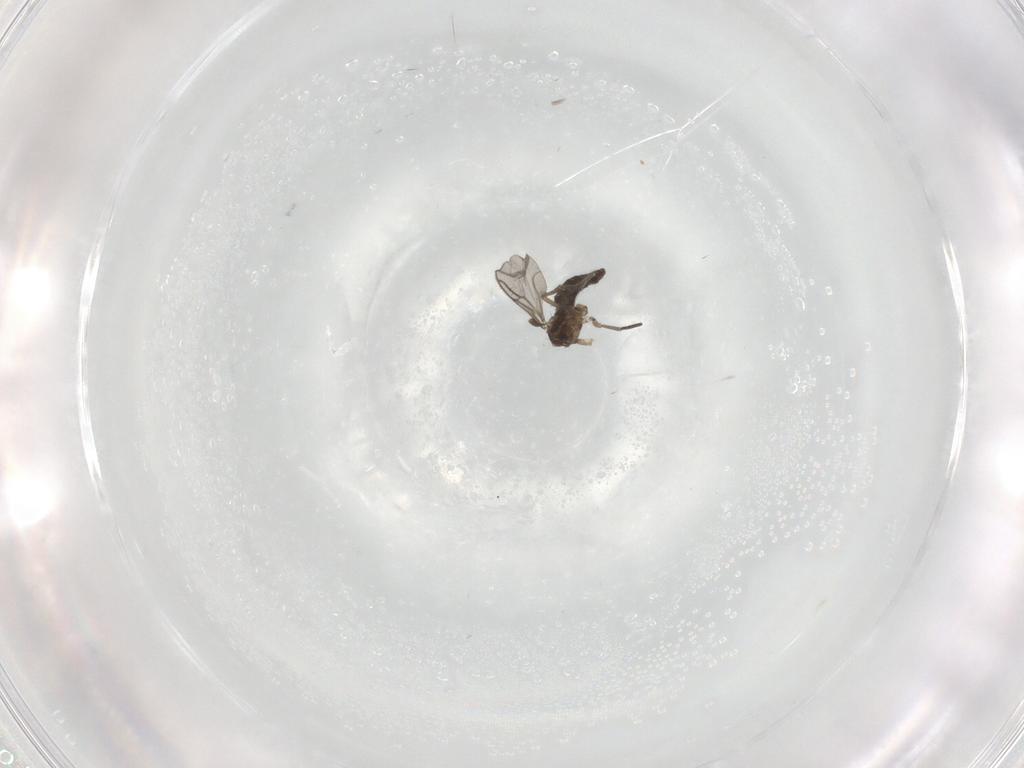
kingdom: Animalia
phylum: Arthropoda
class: Insecta
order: Diptera
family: Sciaridae
